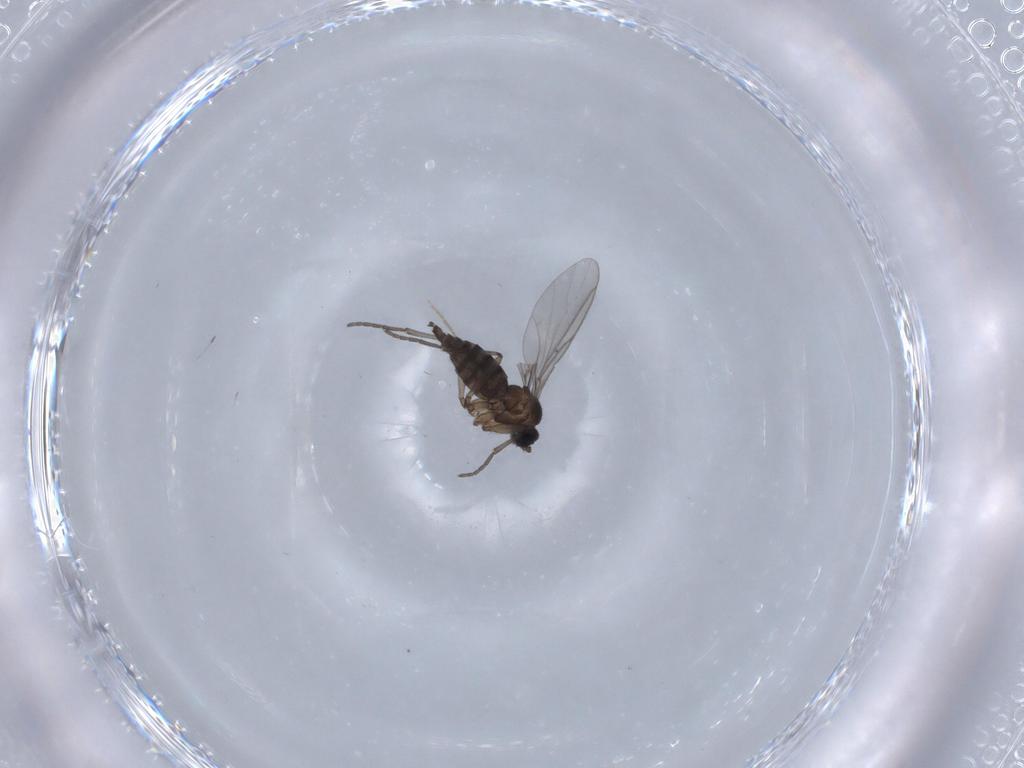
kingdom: Animalia
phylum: Arthropoda
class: Insecta
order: Diptera
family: Chironomidae
